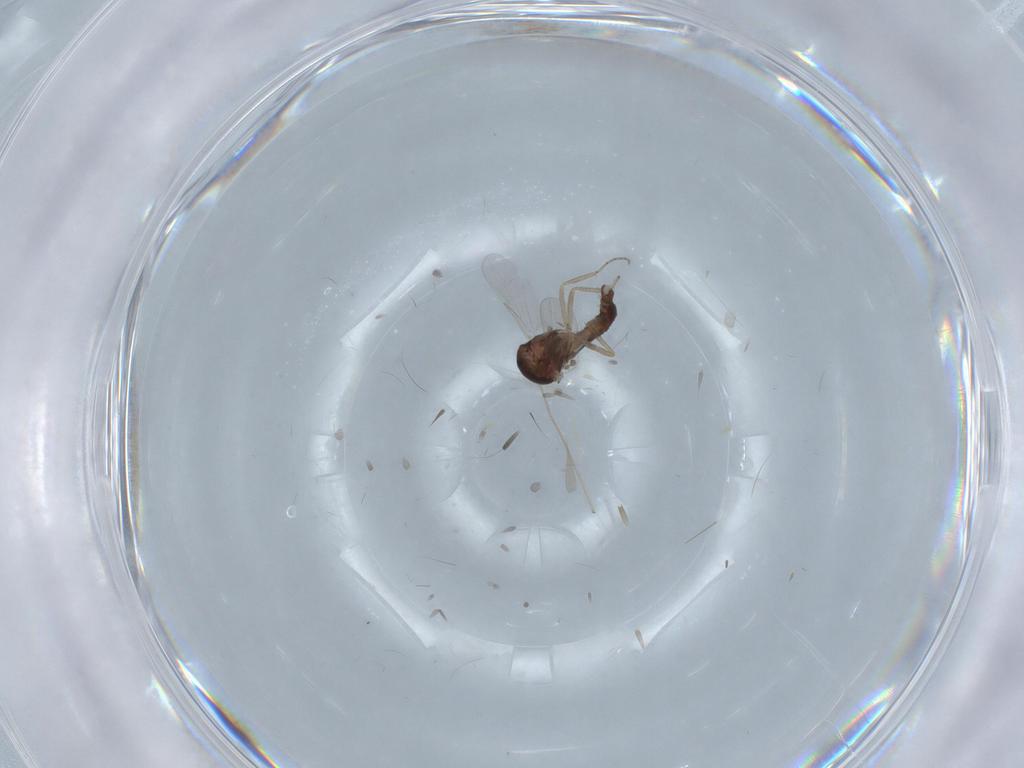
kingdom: Animalia
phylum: Arthropoda
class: Insecta
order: Diptera
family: Ceratopogonidae
